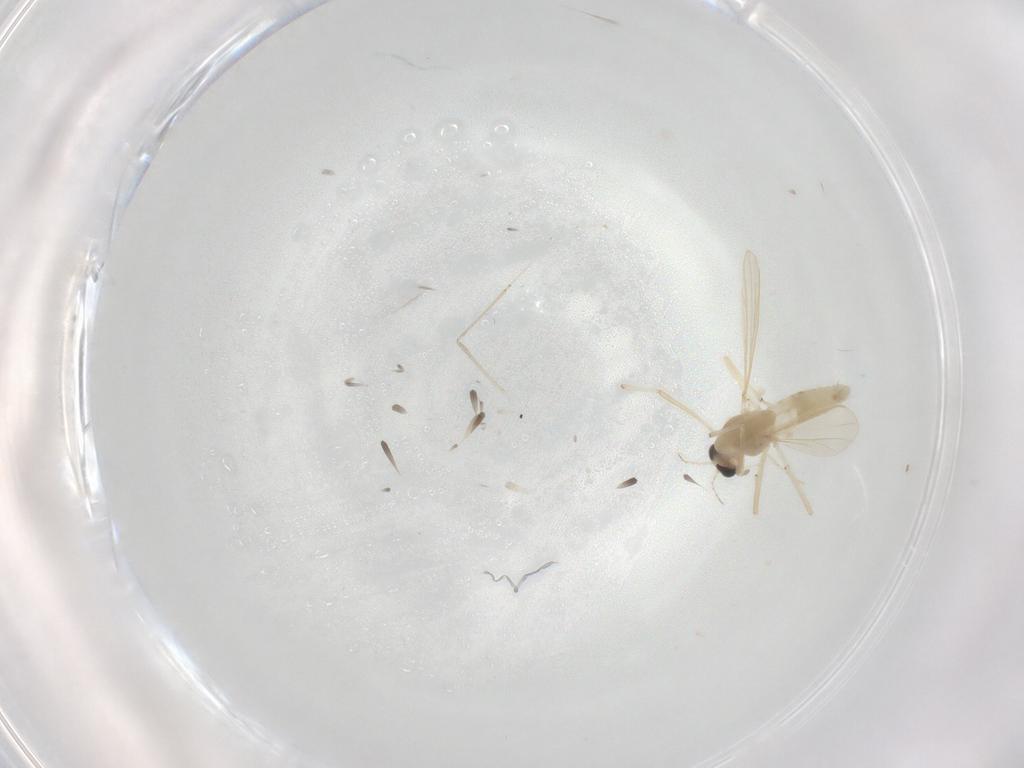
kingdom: Animalia
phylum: Arthropoda
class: Insecta
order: Diptera
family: Chironomidae
